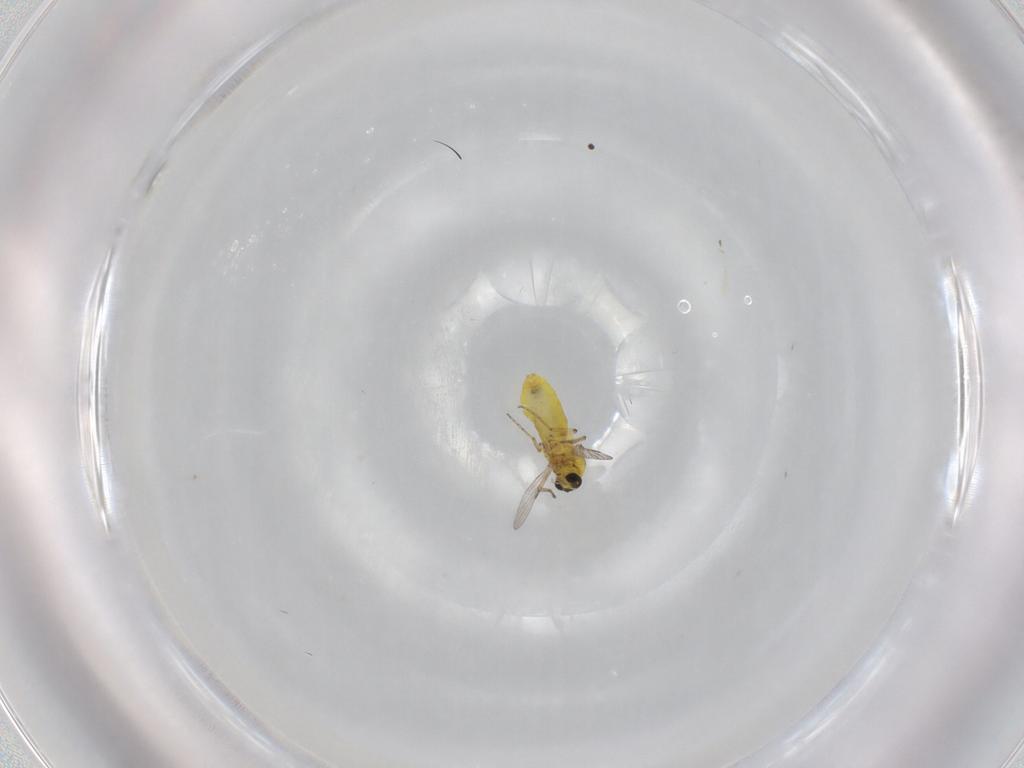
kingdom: Animalia
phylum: Arthropoda
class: Insecta
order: Diptera
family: Ceratopogonidae
